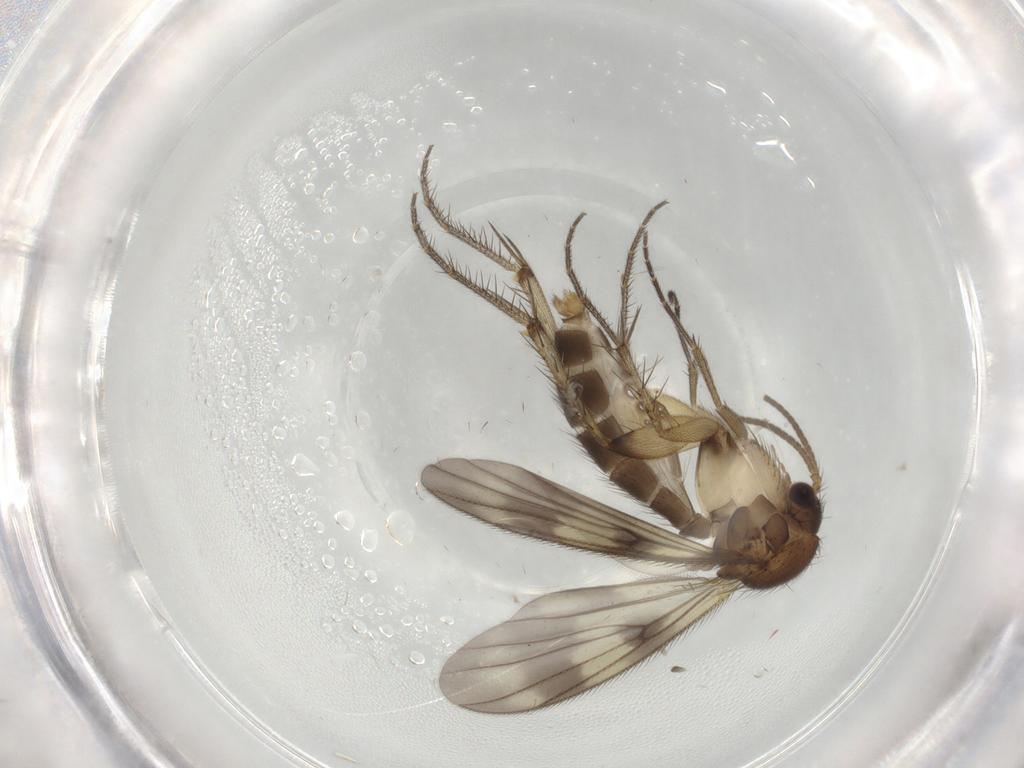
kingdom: Animalia
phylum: Arthropoda
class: Insecta
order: Diptera
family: Mycetophilidae
